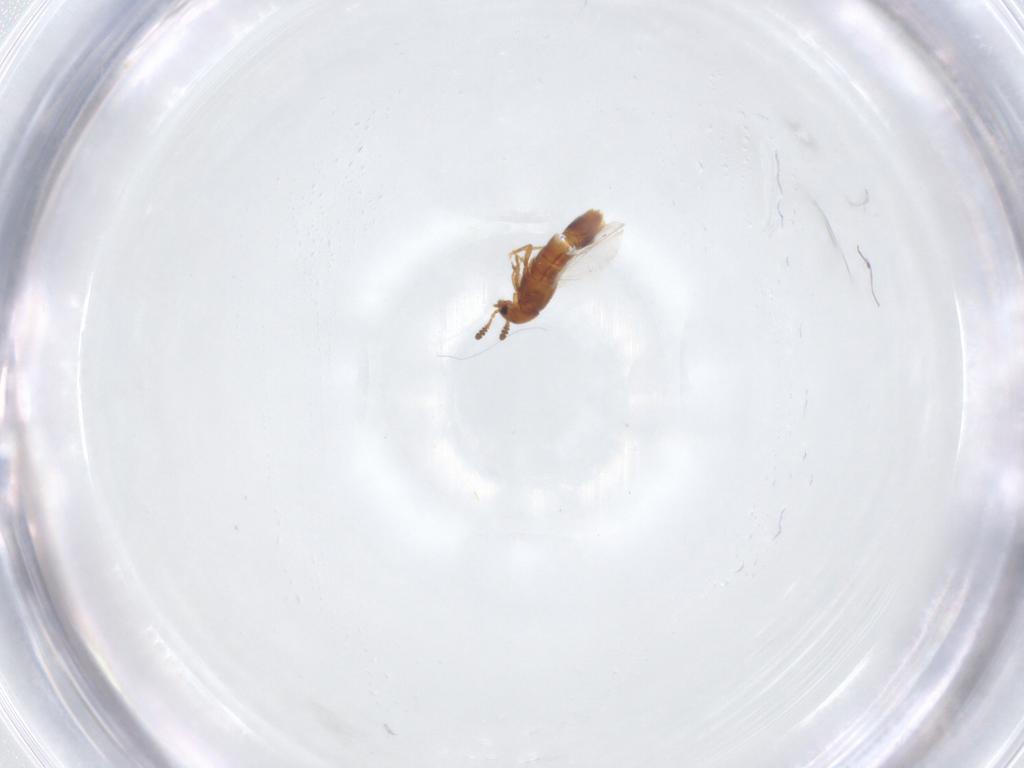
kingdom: Animalia
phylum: Arthropoda
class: Insecta
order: Coleoptera
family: Staphylinidae
